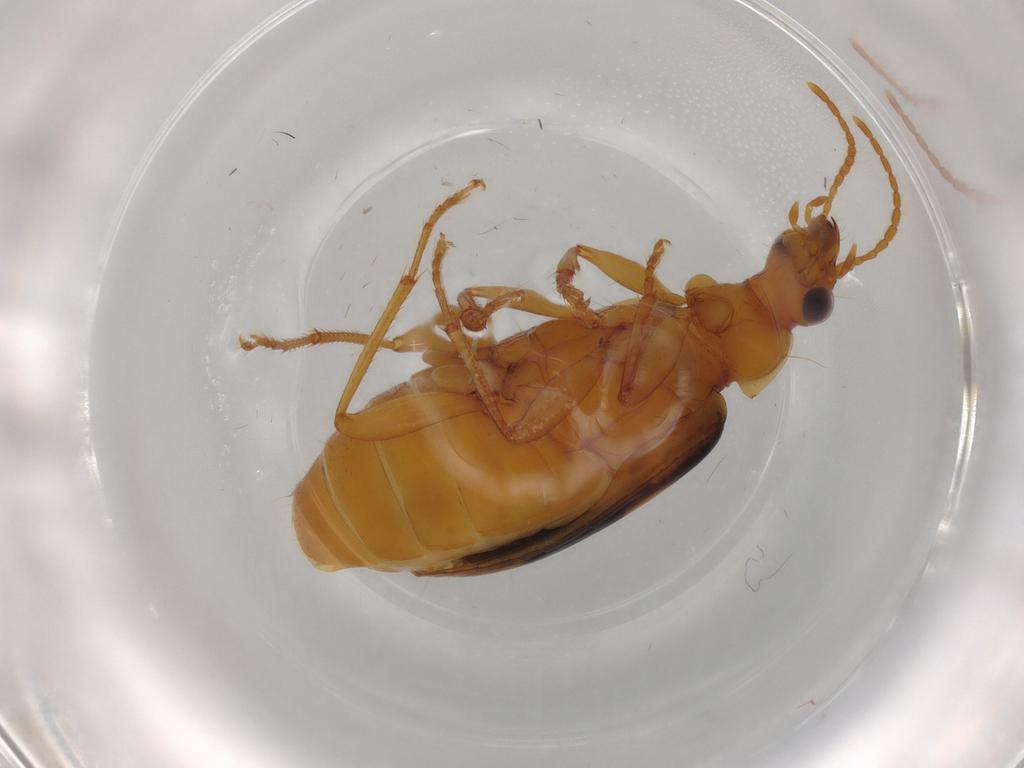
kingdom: Animalia
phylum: Arthropoda
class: Insecta
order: Coleoptera
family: Carabidae
